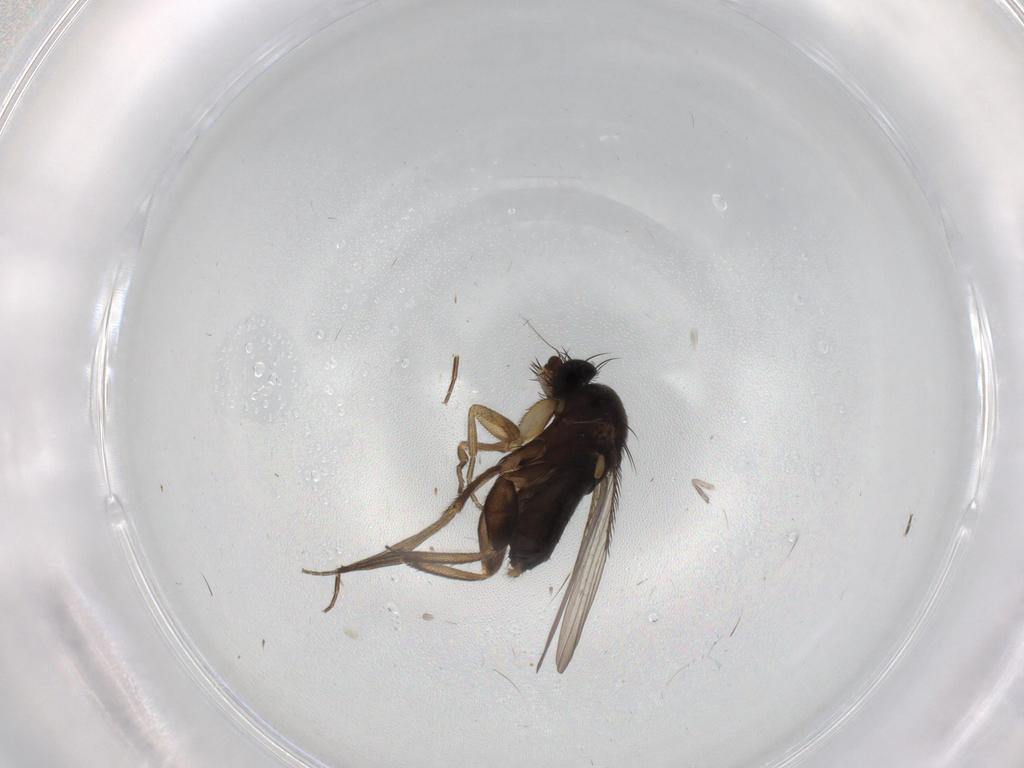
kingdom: Animalia
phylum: Arthropoda
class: Insecta
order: Diptera
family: Phoridae
